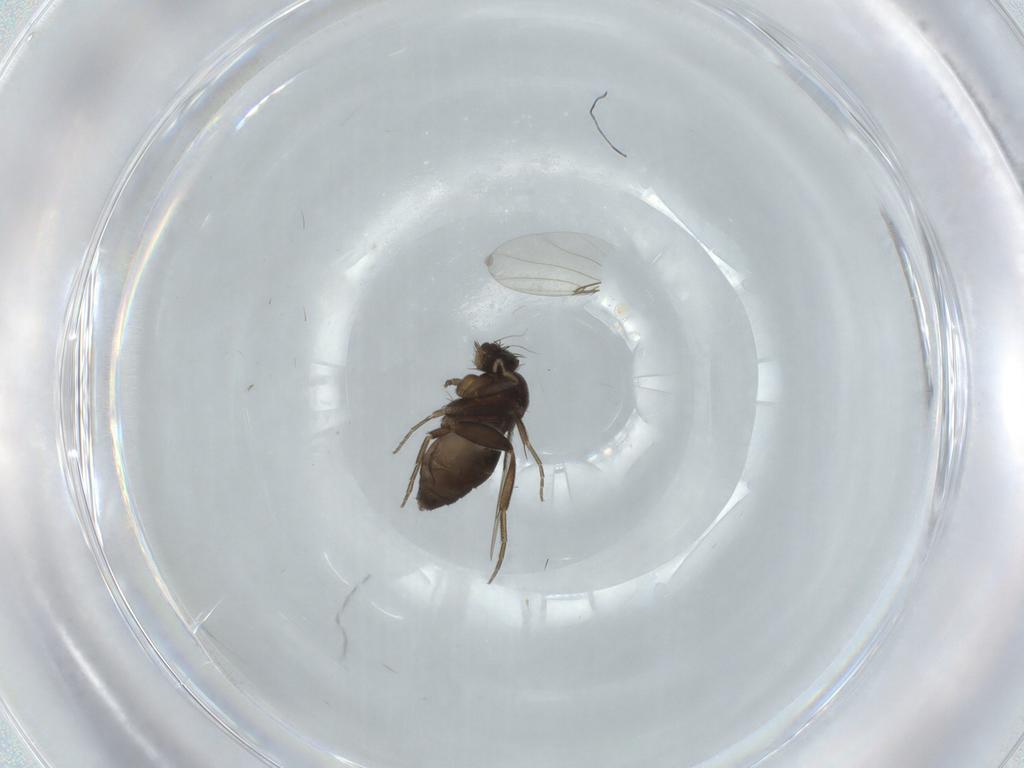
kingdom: Animalia
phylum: Arthropoda
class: Insecta
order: Diptera
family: Phoridae
